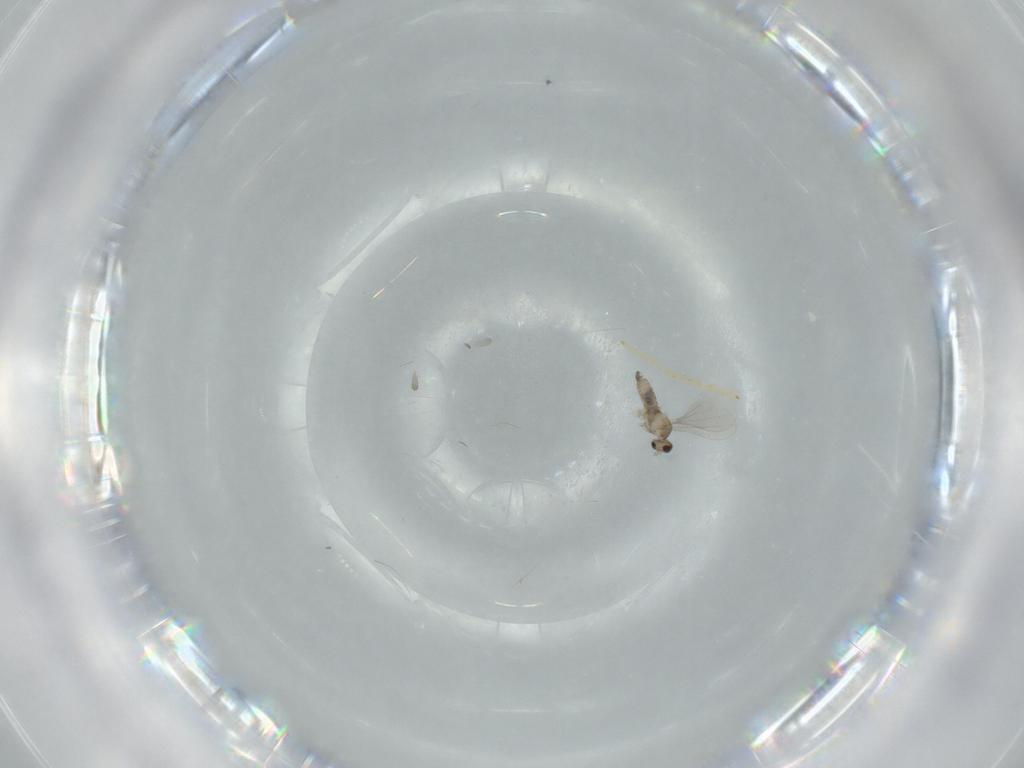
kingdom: Animalia
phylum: Arthropoda
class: Insecta
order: Diptera
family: Cecidomyiidae
